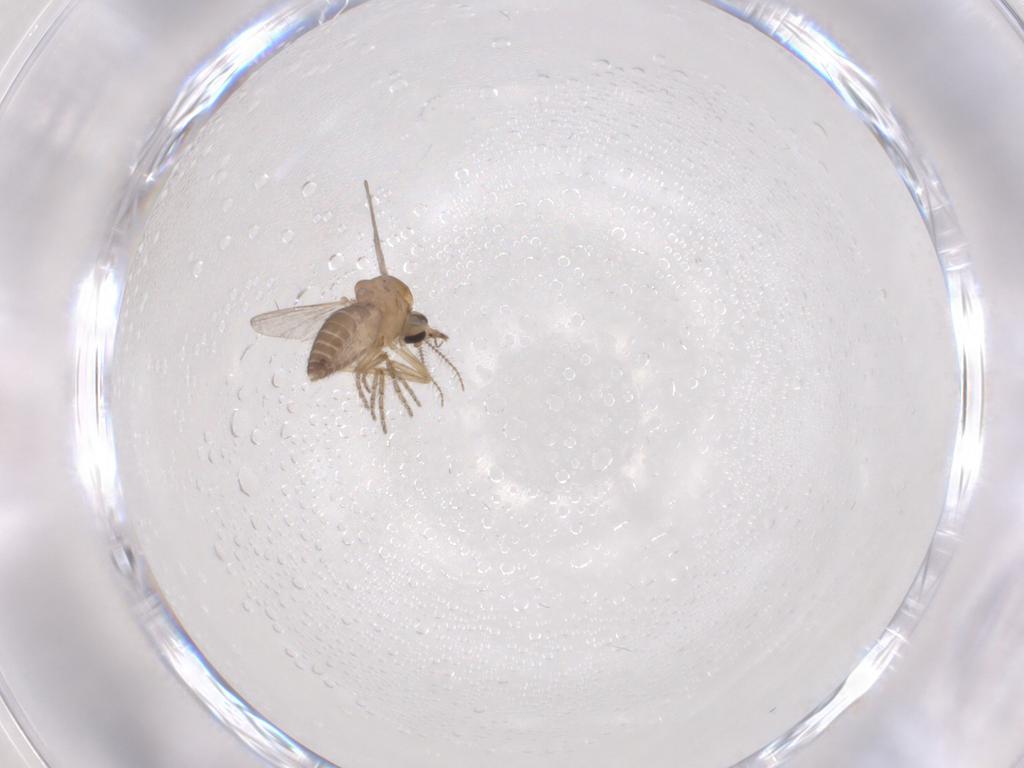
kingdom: Animalia
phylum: Arthropoda
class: Insecta
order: Diptera
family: Ceratopogonidae
